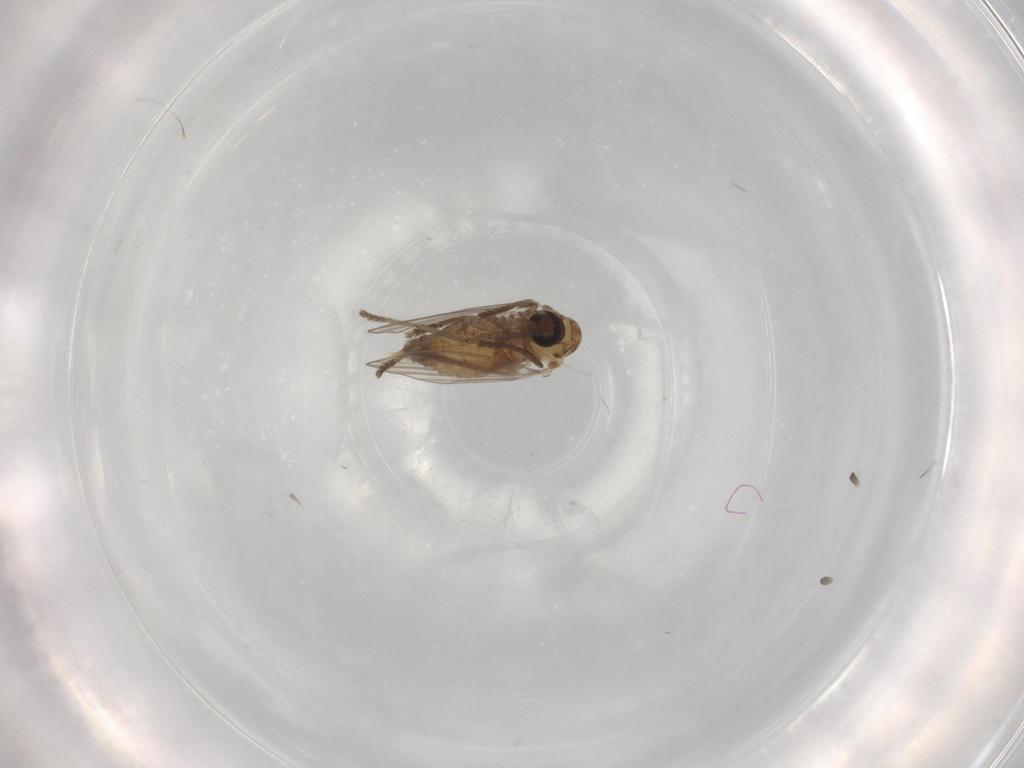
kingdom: Animalia
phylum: Arthropoda
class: Insecta
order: Diptera
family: Psychodidae
